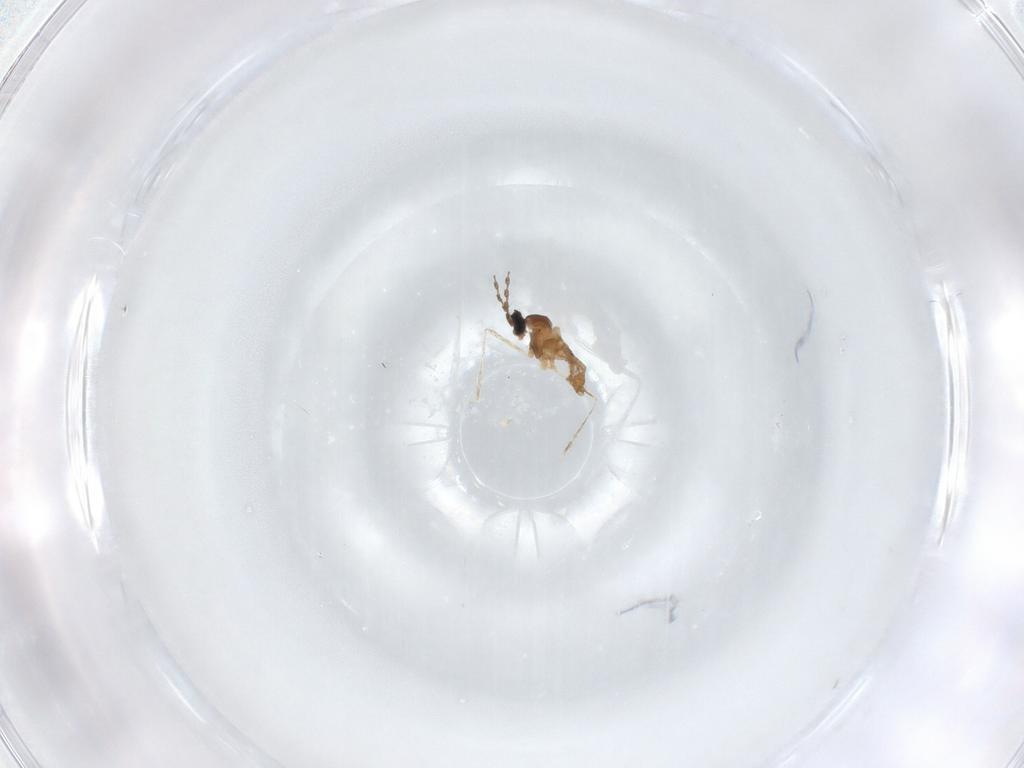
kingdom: Animalia
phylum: Arthropoda
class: Insecta
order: Diptera
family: Cecidomyiidae
